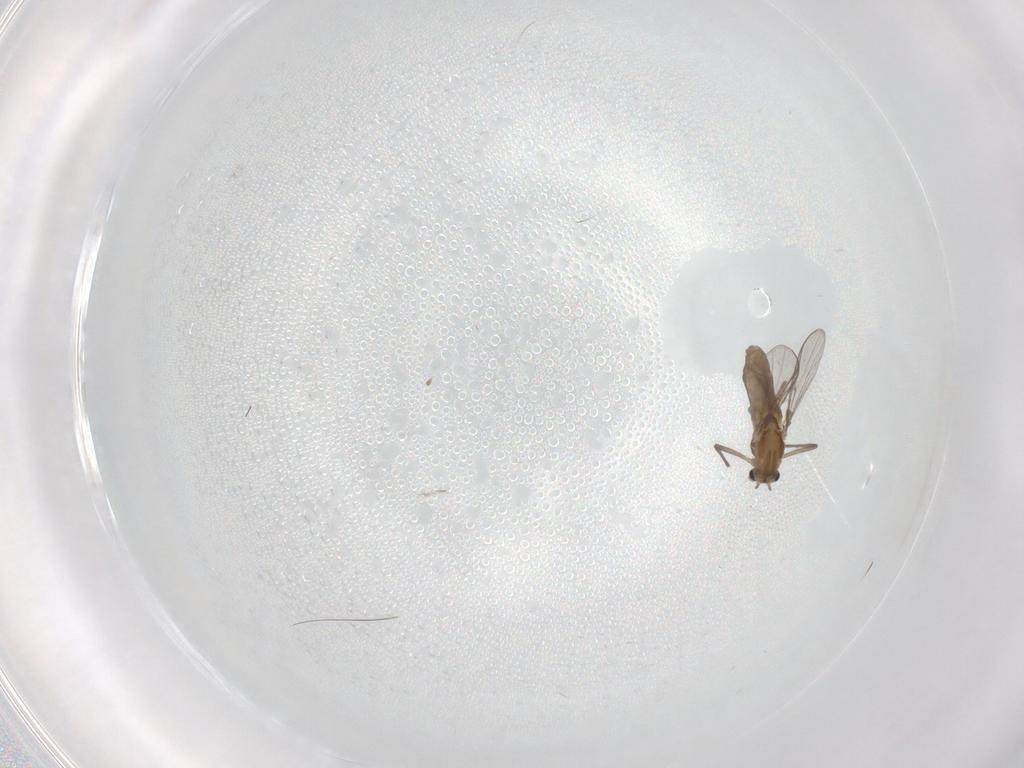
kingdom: Animalia
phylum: Arthropoda
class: Insecta
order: Diptera
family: Chironomidae
